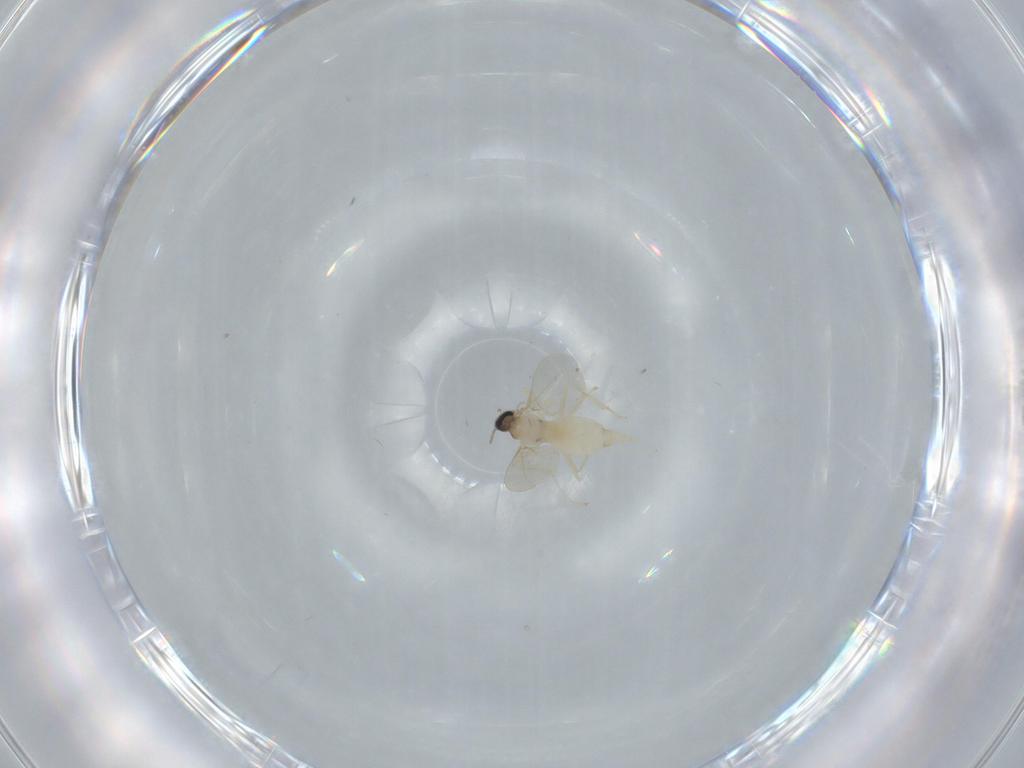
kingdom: Animalia
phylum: Arthropoda
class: Insecta
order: Diptera
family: Cecidomyiidae
